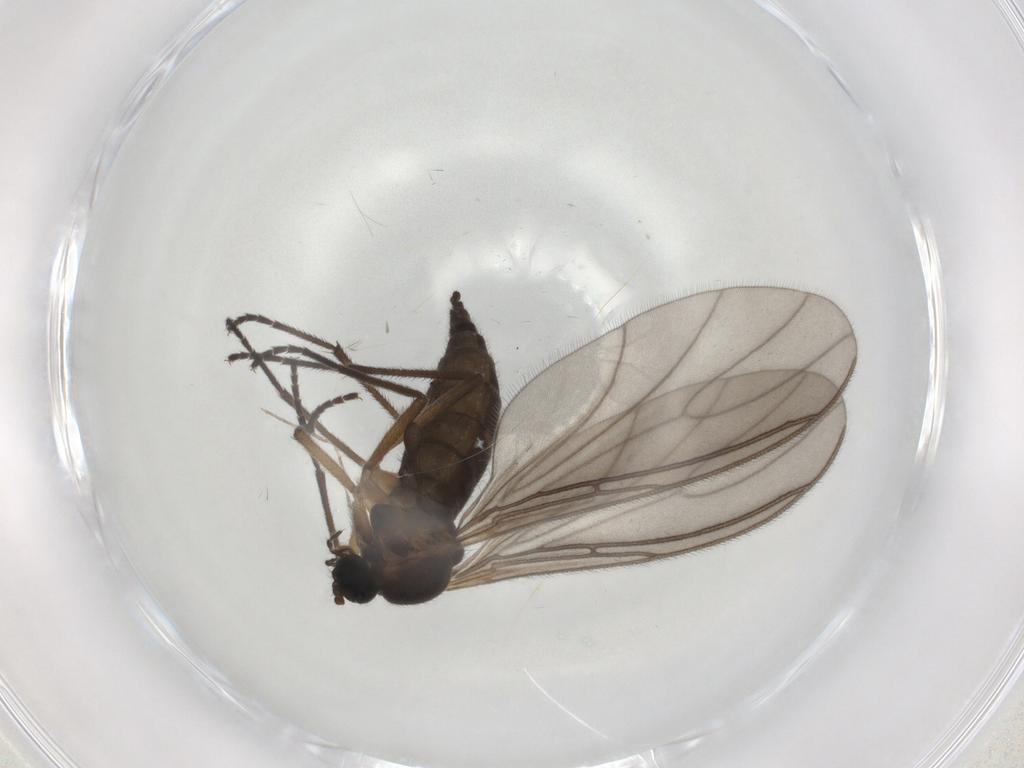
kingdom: Animalia
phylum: Arthropoda
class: Insecta
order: Diptera
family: Sciaridae
